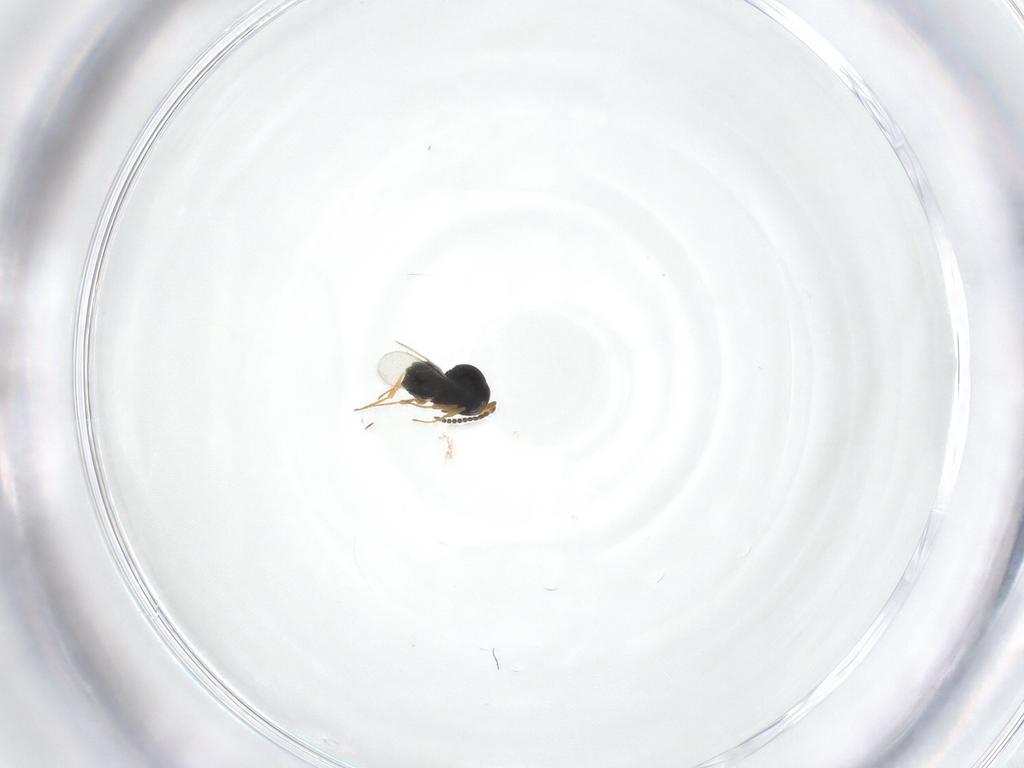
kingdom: Animalia
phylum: Arthropoda
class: Insecta
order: Hymenoptera
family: Scelionidae
